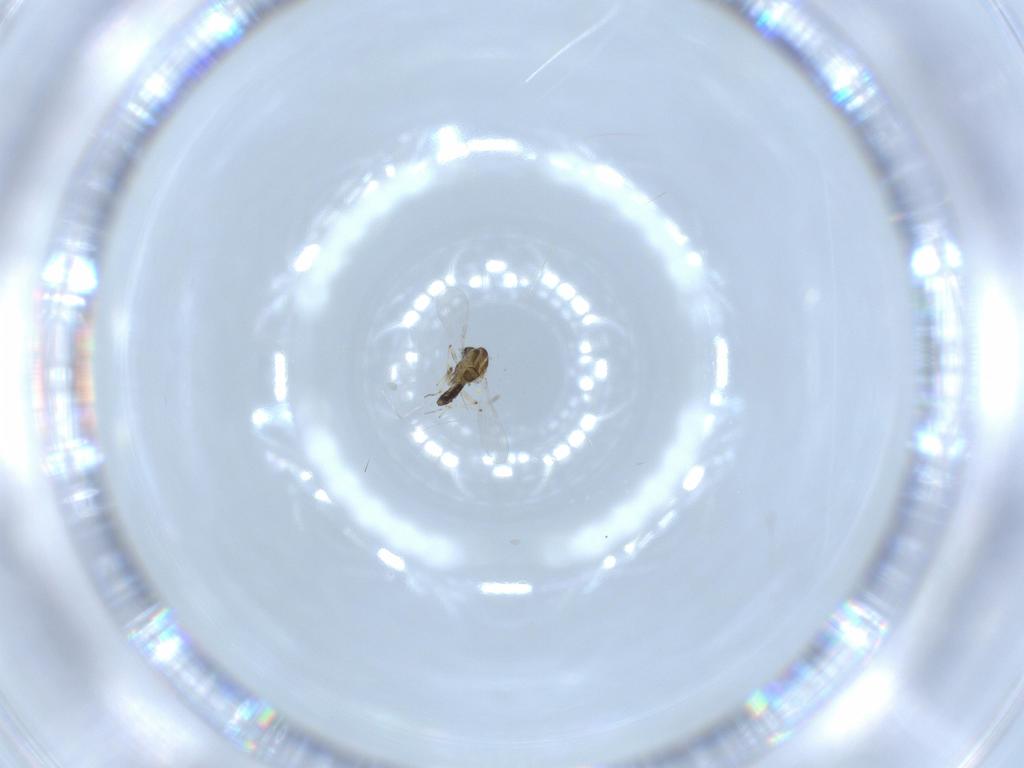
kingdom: Animalia
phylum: Arthropoda
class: Insecta
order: Diptera
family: Chironomidae
